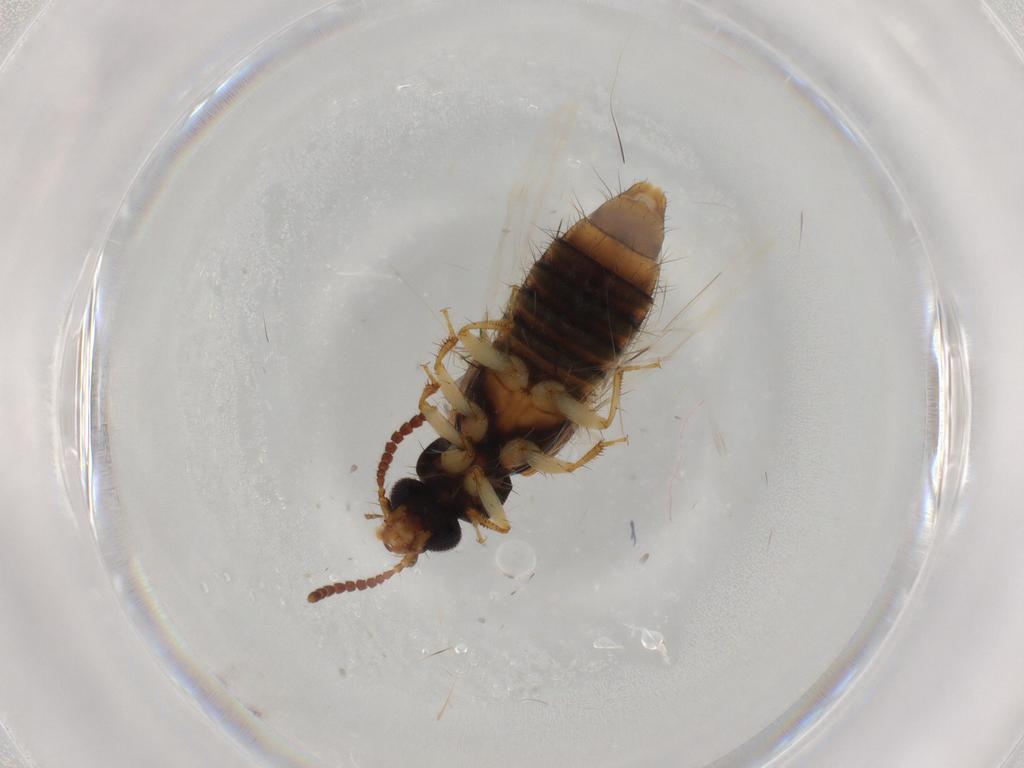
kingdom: Animalia
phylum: Arthropoda
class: Insecta
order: Coleoptera
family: Staphylinidae
